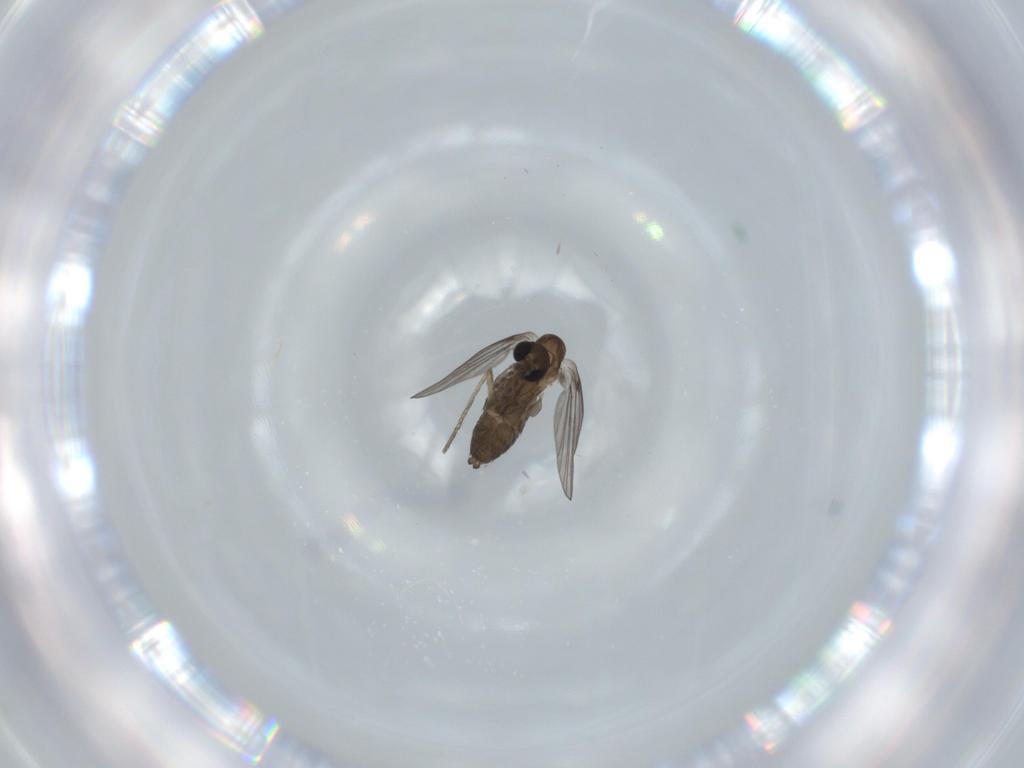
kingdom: Animalia
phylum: Arthropoda
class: Insecta
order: Diptera
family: Psychodidae
